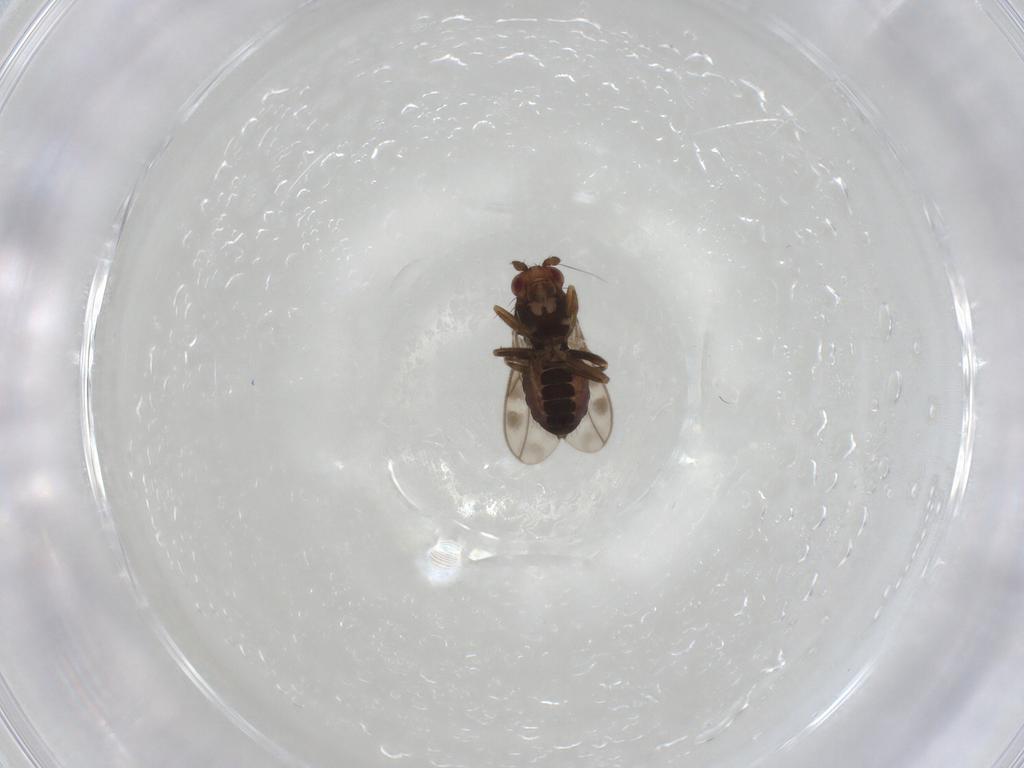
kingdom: Animalia
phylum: Arthropoda
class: Insecta
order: Diptera
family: Sphaeroceridae
